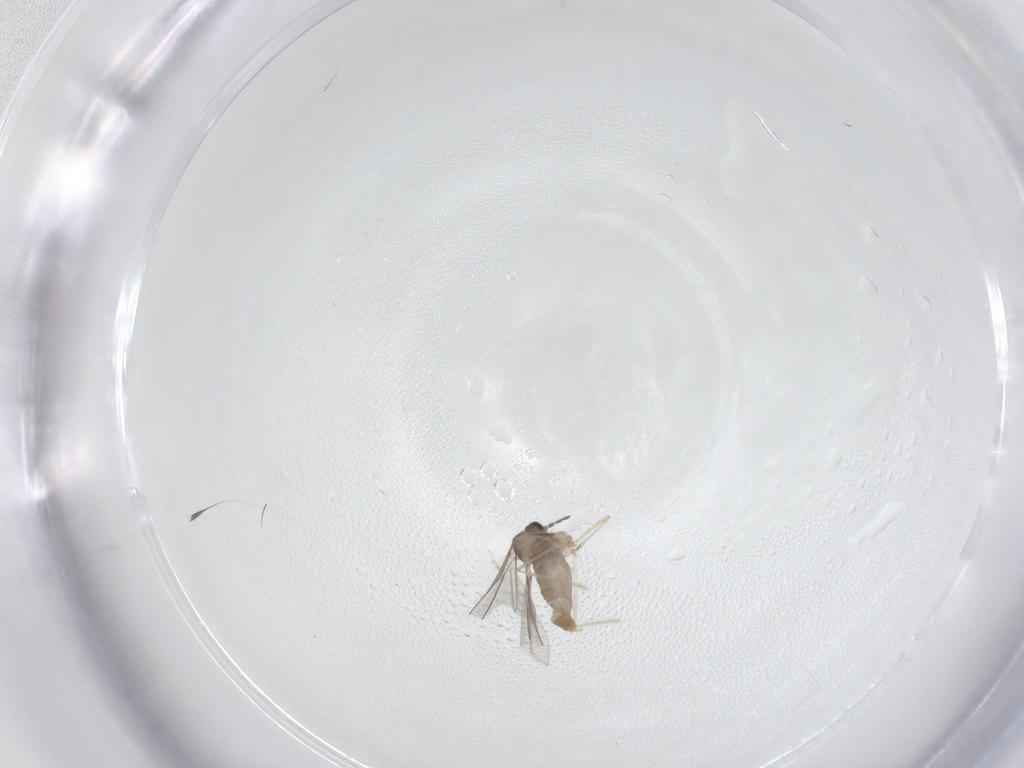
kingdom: Animalia
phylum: Arthropoda
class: Insecta
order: Diptera
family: Cecidomyiidae
